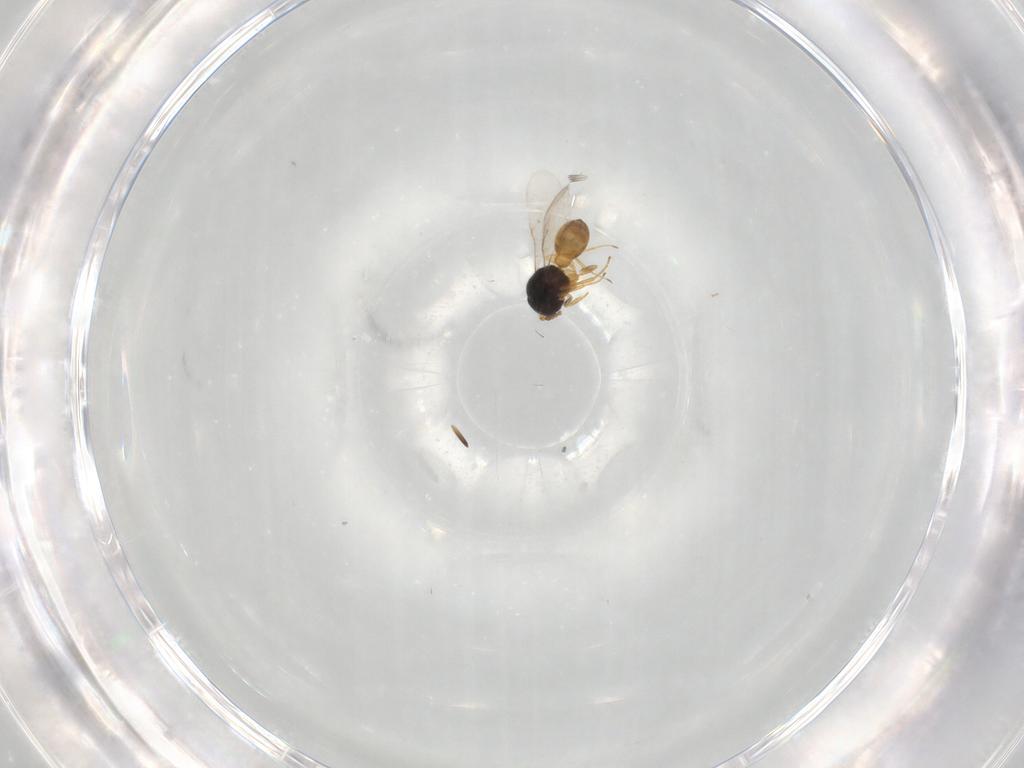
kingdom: Animalia
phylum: Arthropoda
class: Insecta
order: Hymenoptera
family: Scelionidae
